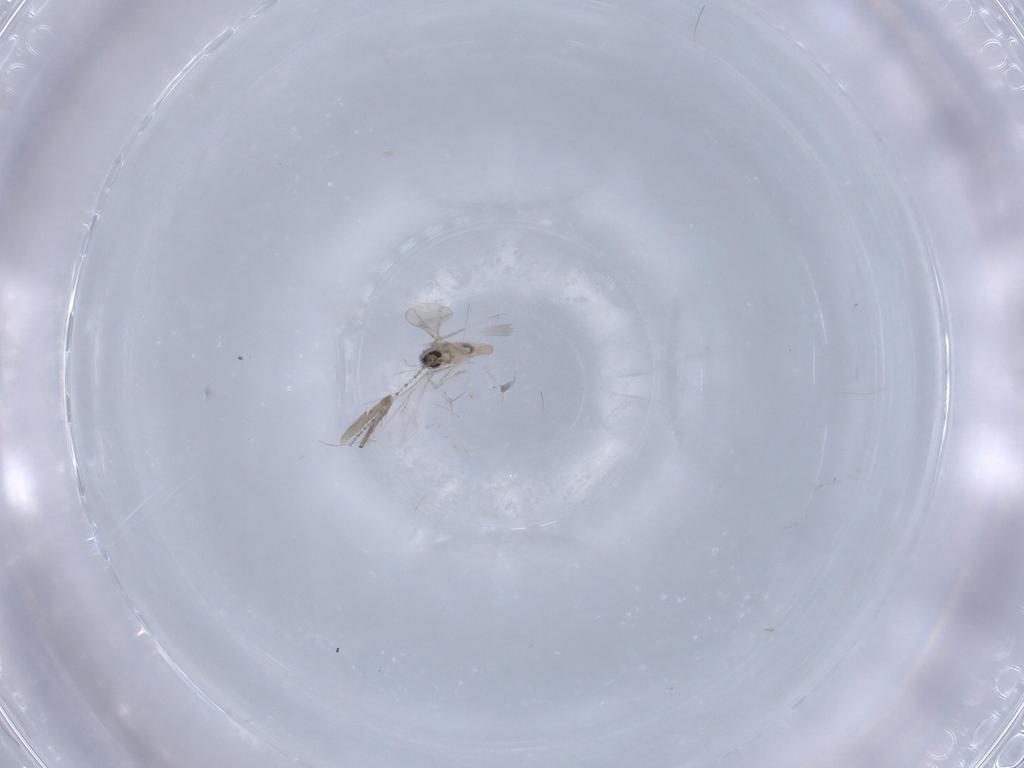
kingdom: Animalia
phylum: Arthropoda
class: Insecta
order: Diptera
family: Chironomidae
